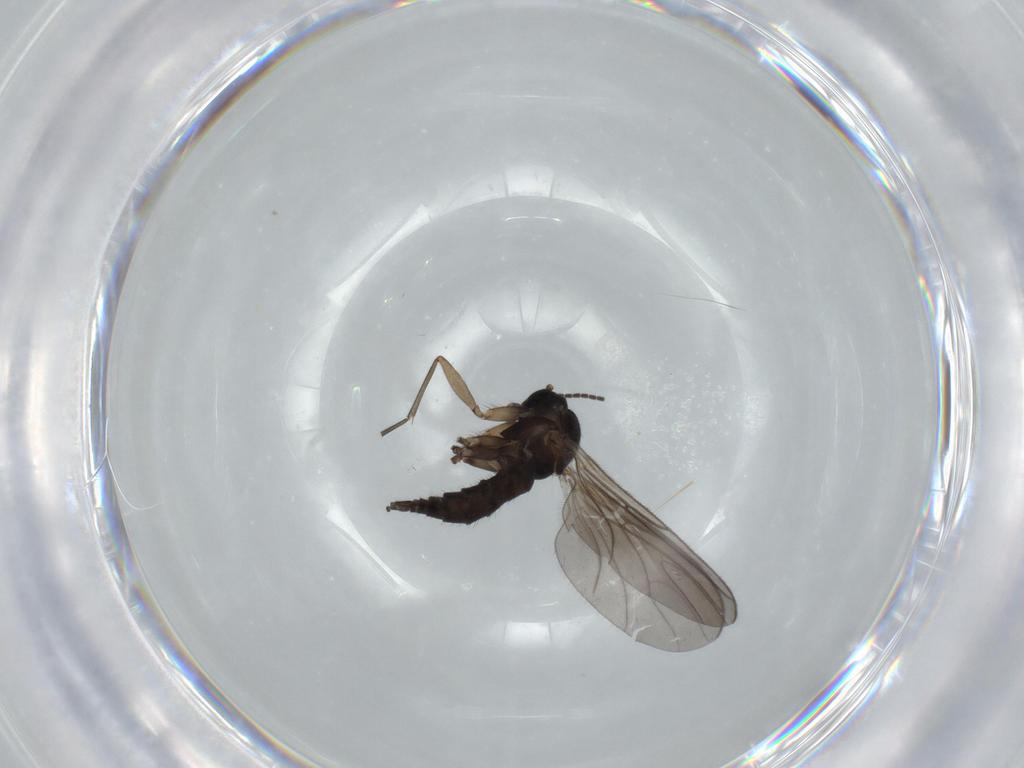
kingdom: Animalia
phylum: Arthropoda
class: Insecta
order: Diptera
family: Sciaridae
